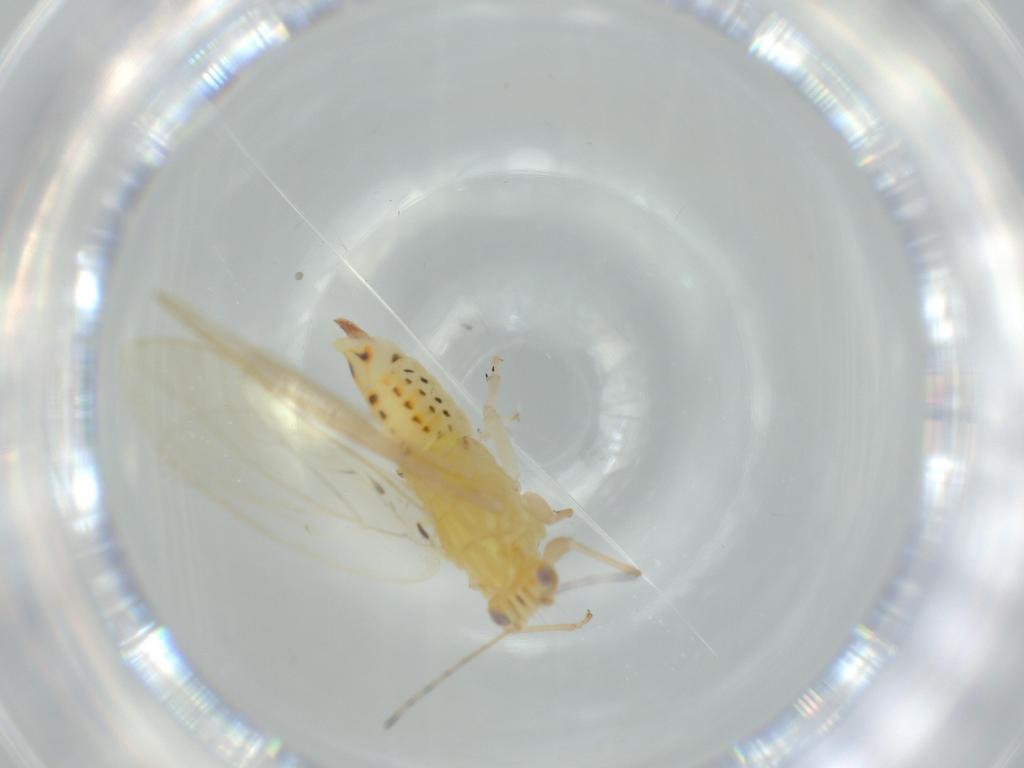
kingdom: Animalia
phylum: Arthropoda
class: Insecta
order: Hemiptera
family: Triozidae
